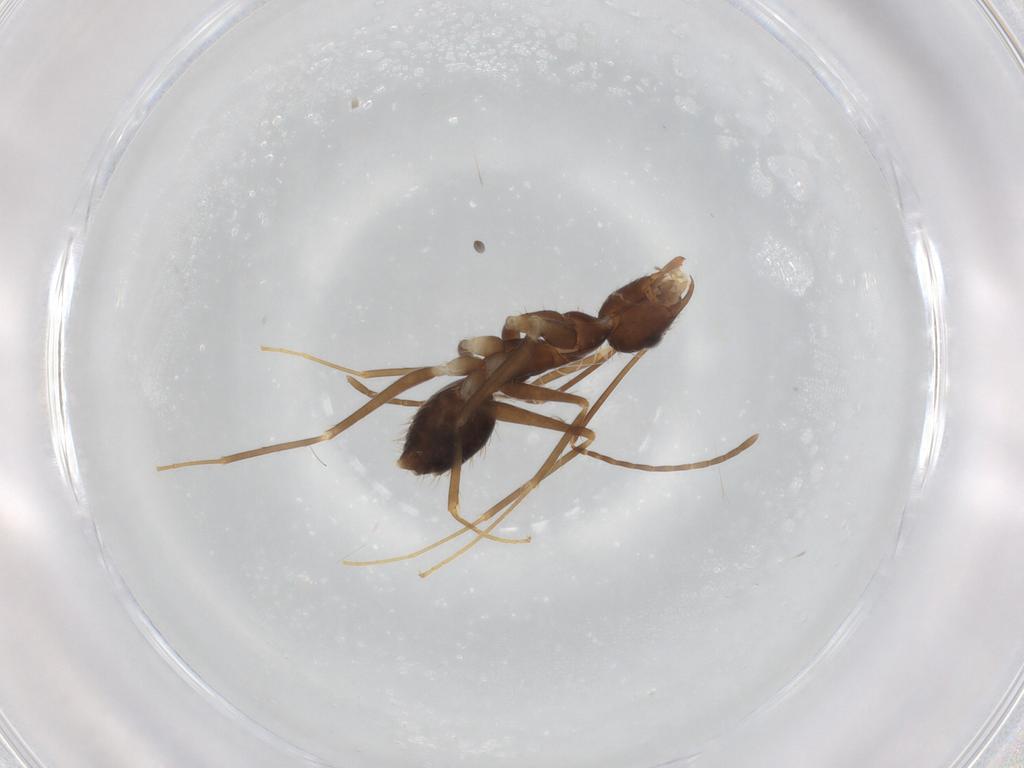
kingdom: Animalia
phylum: Arthropoda
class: Insecta
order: Hymenoptera
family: Formicidae
